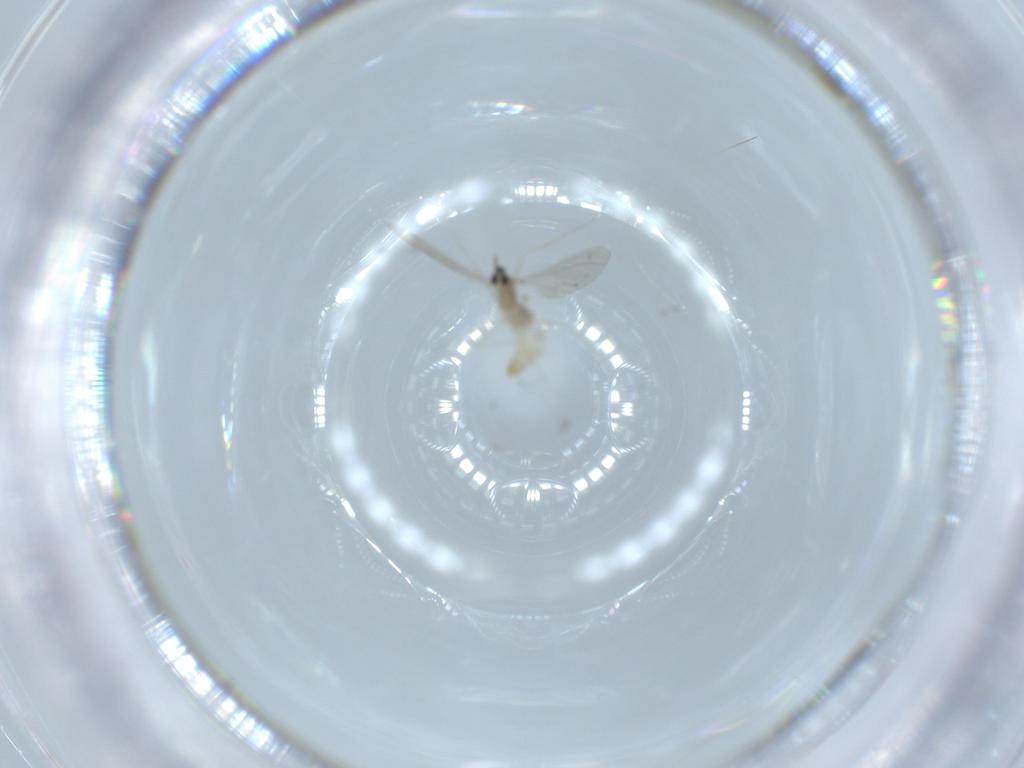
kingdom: Animalia
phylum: Arthropoda
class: Insecta
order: Diptera
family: Cecidomyiidae
